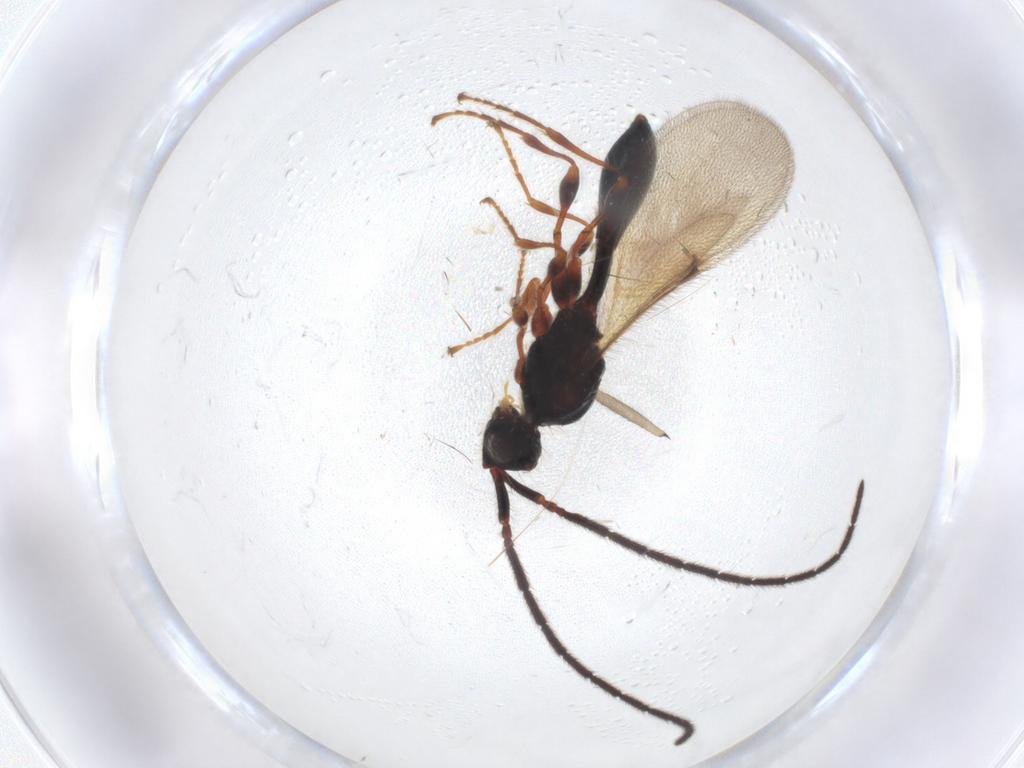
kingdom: Animalia
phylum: Arthropoda
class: Insecta
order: Hymenoptera
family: Diapriidae
